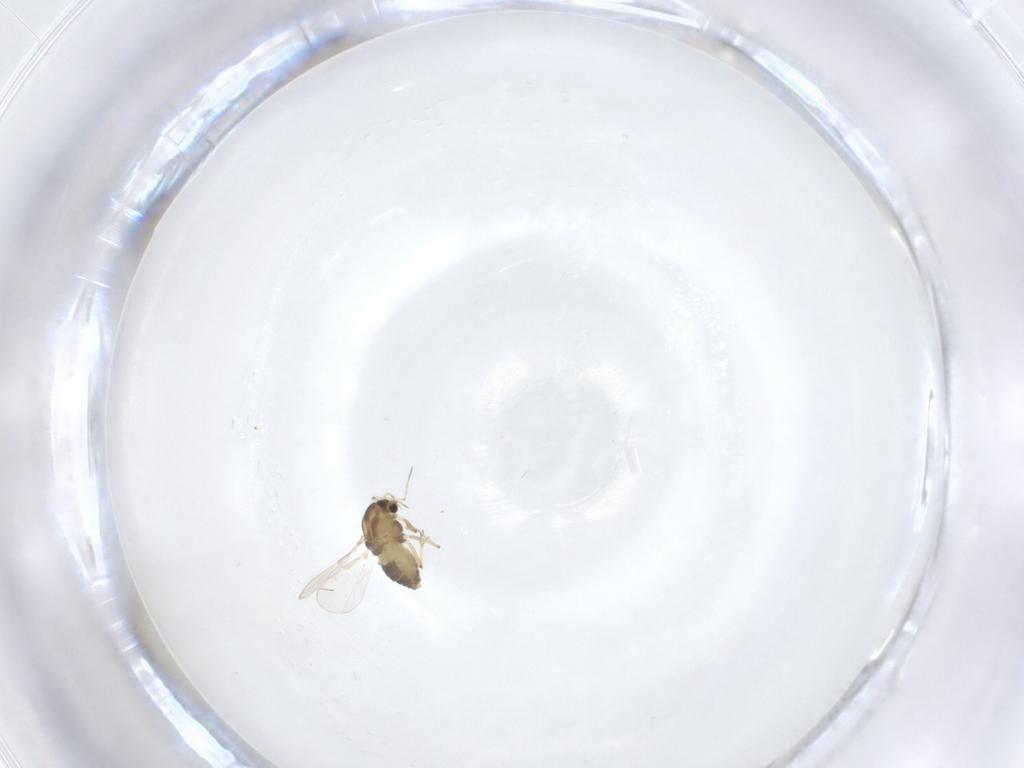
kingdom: Animalia
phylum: Arthropoda
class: Insecta
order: Diptera
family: Chironomidae
